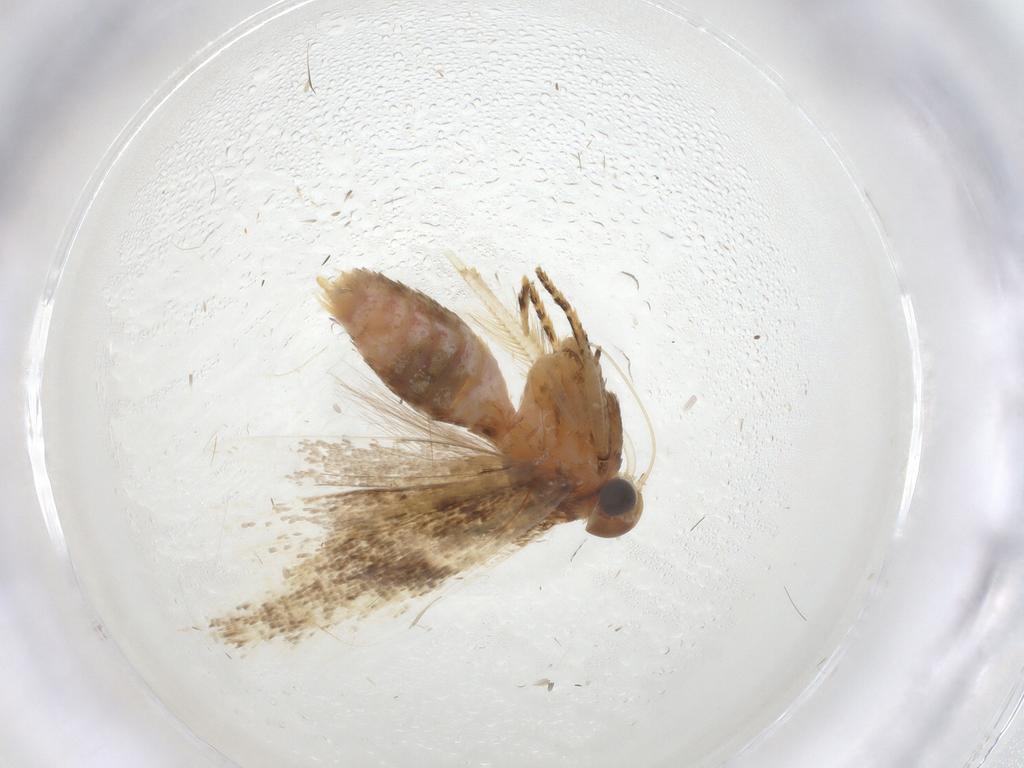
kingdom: Animalia
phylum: Arthropoda
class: Insecta
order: Lepidoptera
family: Gelechiidae
